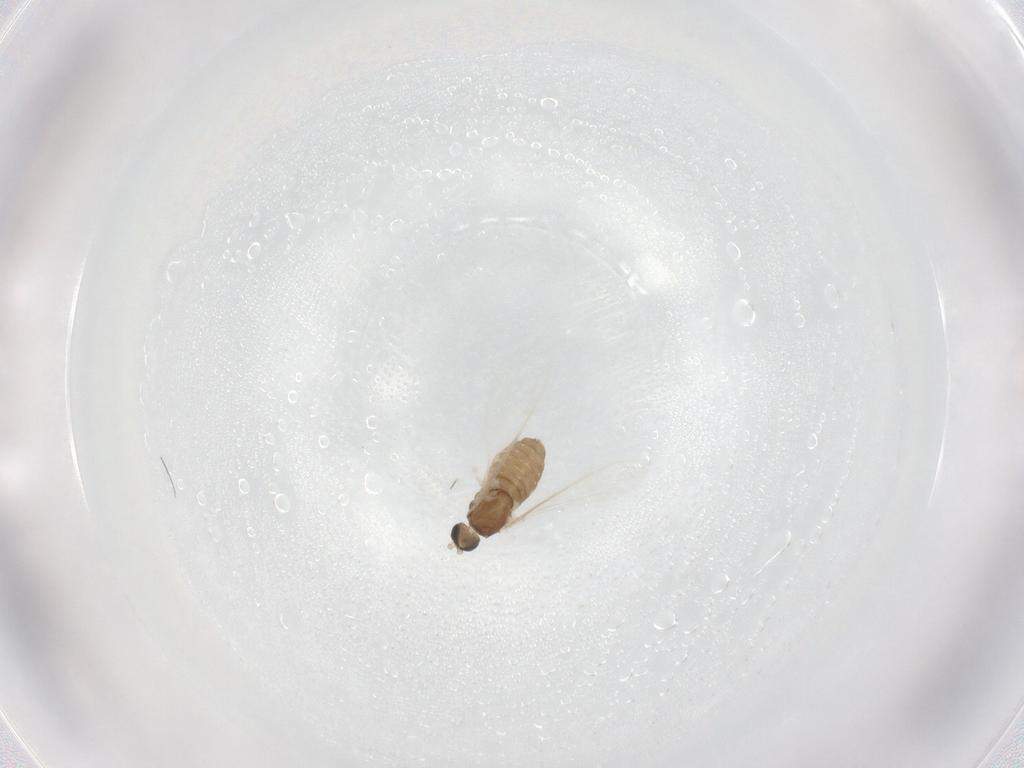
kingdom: Animalia
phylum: Arthropoda
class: Insecta
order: Diptera
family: Cecidomyiidae
